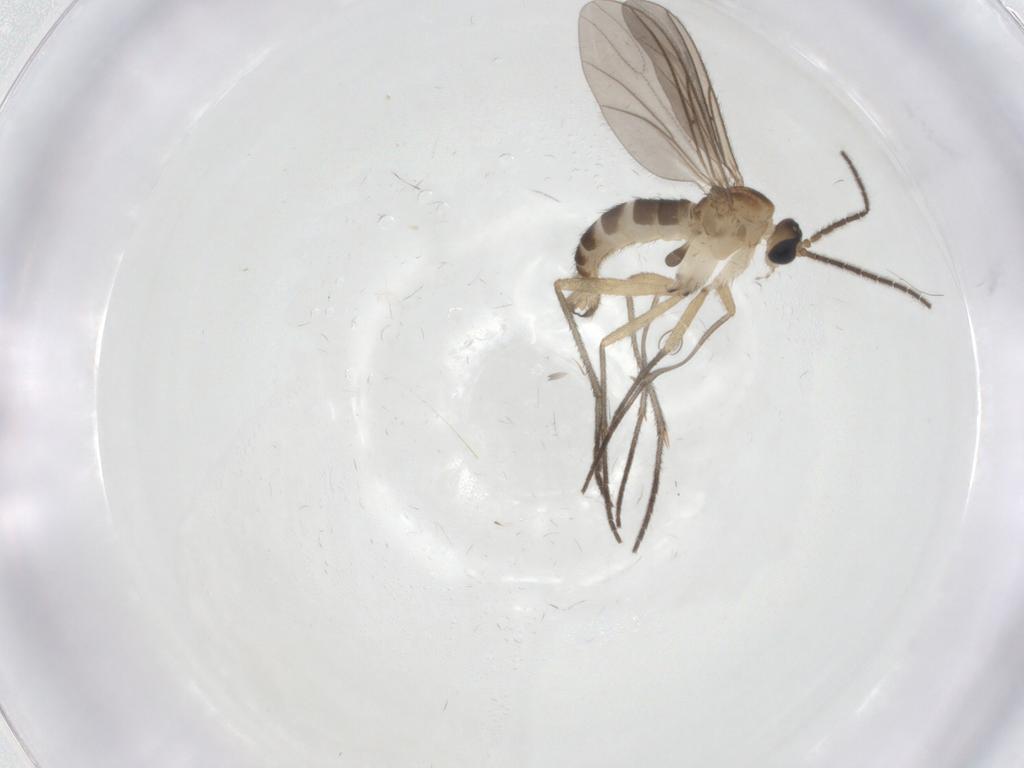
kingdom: Animalia
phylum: Arthropoda
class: Insecta
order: Diptera
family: Sciaridae
